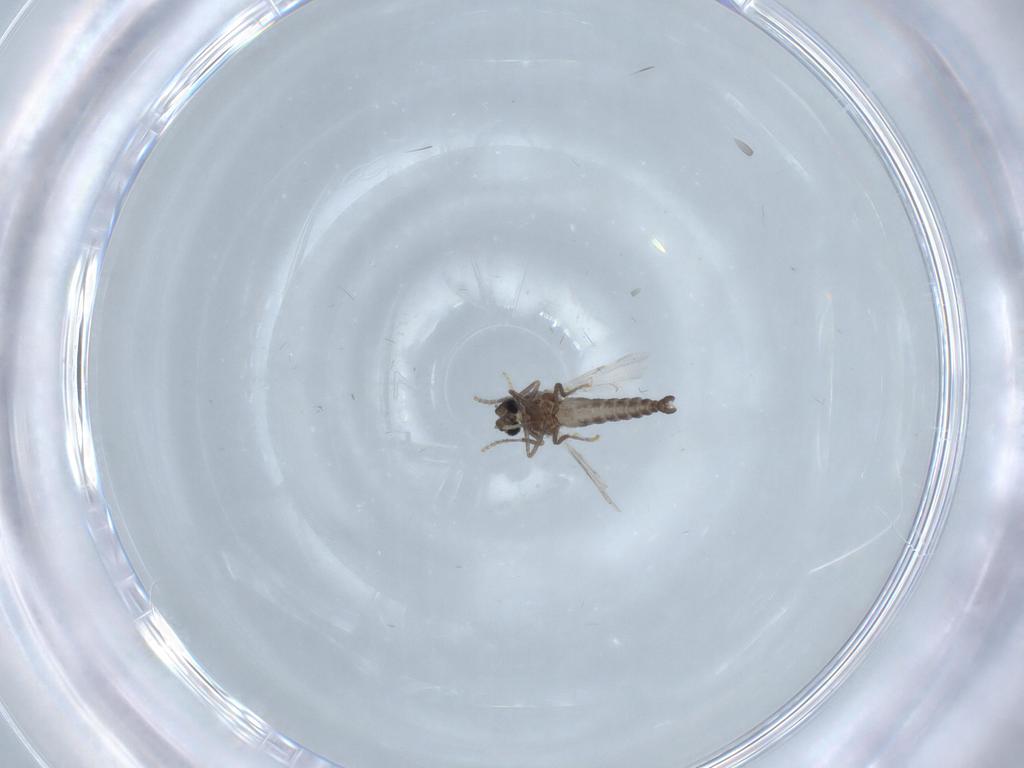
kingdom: Animalia
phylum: Arthropoda
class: Insecta
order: Diptera
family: Ceratopogonidae
